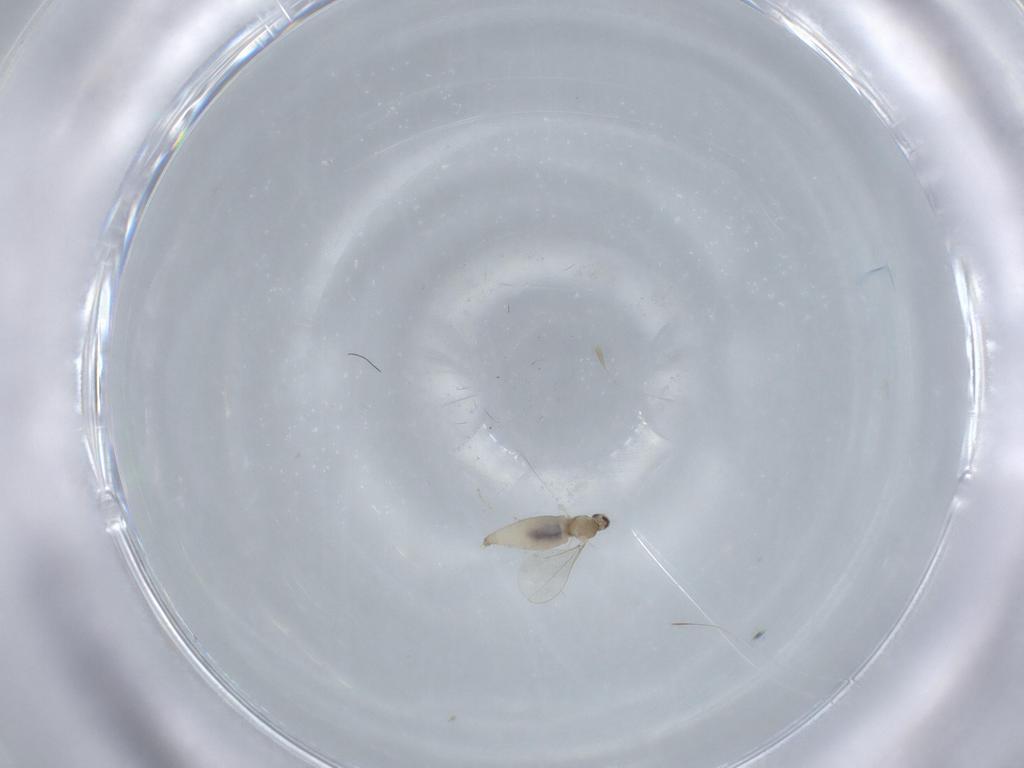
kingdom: Animalia
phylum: Arthropoda
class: Insecta
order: Diptera
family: Cecidomyiidae
